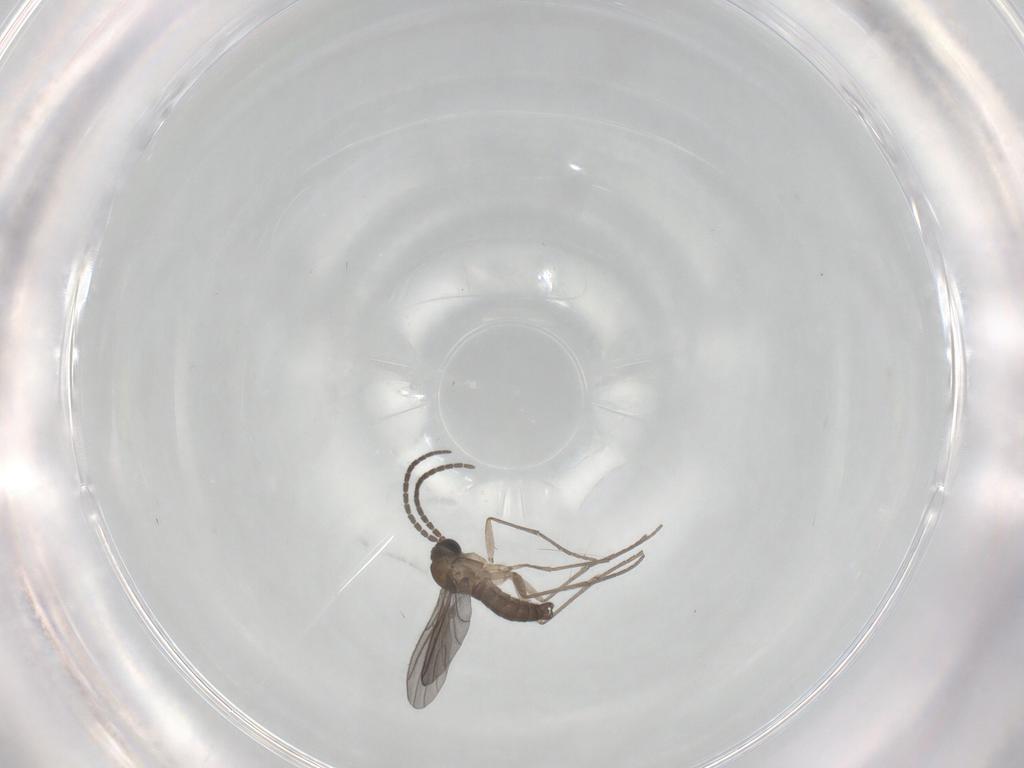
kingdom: Animalia
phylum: Arthropoda
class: Insecta
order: Diptera
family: Sciaridae
